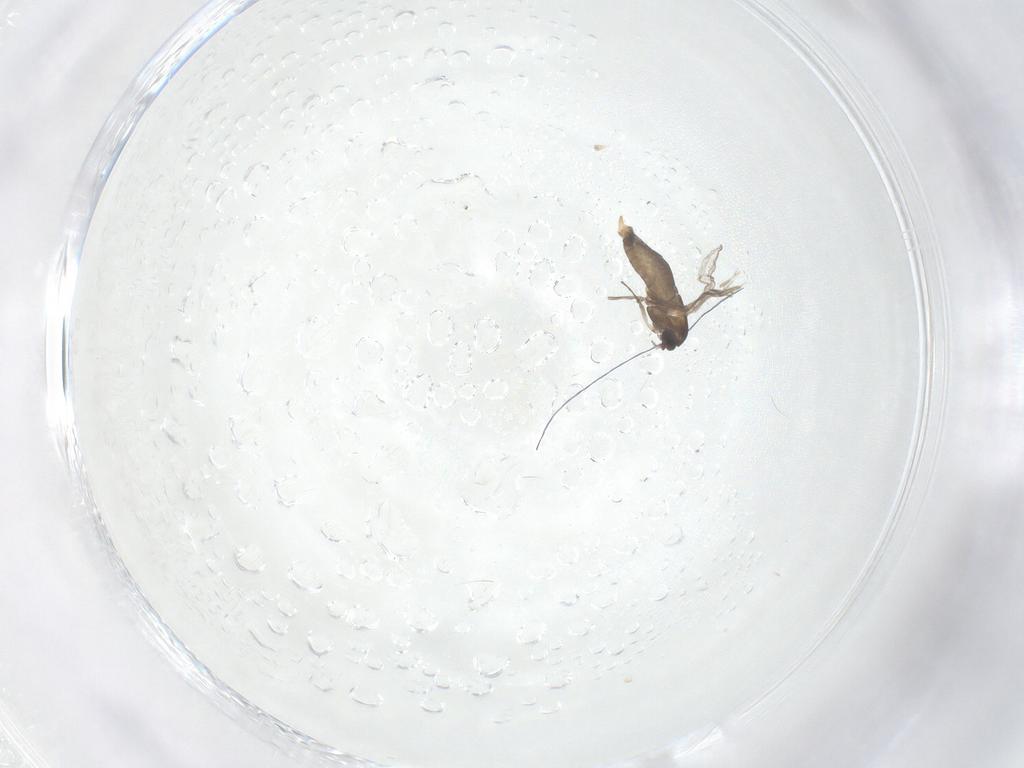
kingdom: Animalia
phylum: Arthropoda
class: Insecta
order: Diptera
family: Chironomidae
